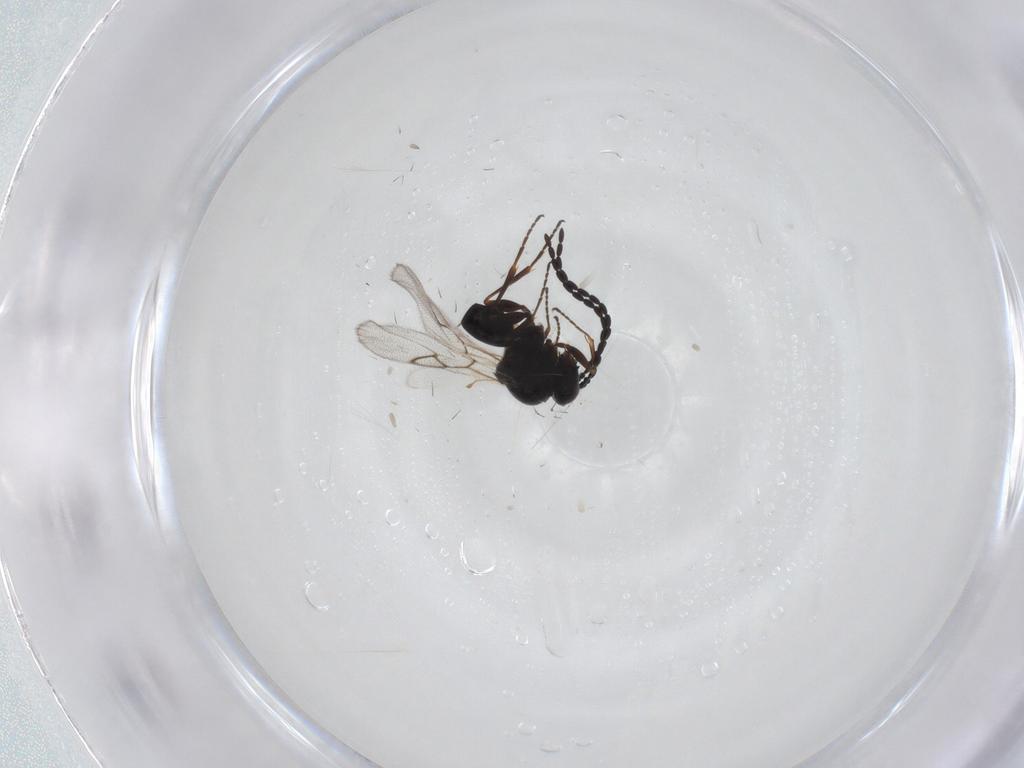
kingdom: Animalia
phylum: Arthropoda
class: Insecta
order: Hymenoptera
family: Figitidae
